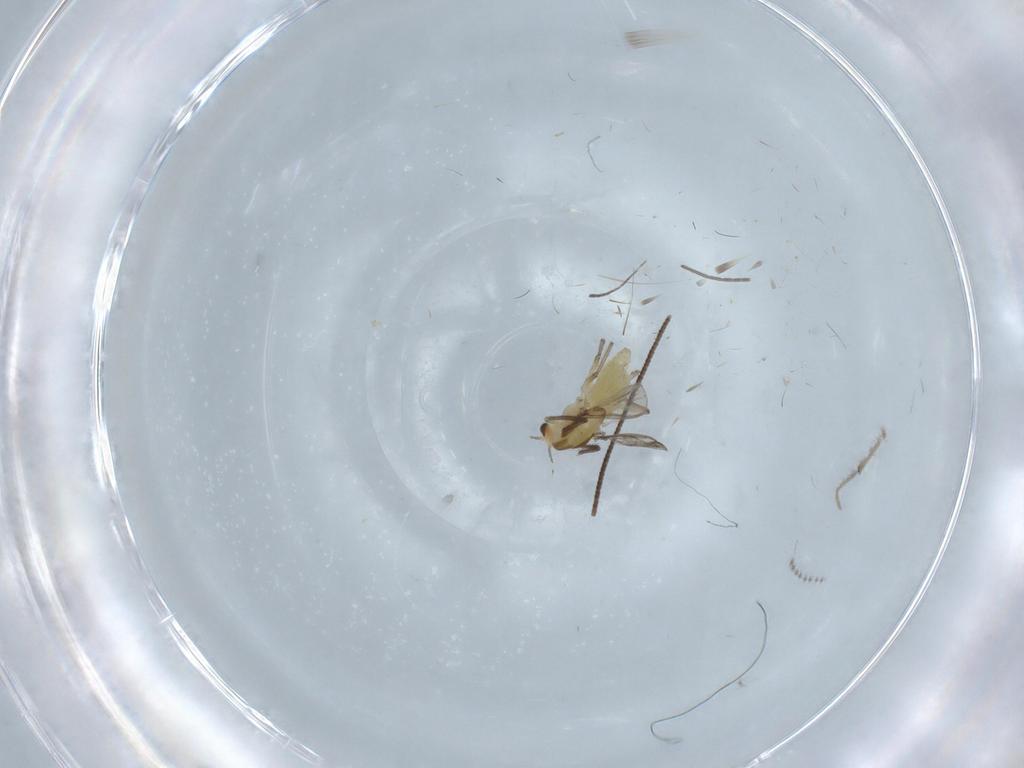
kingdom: Animalia
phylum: Arthropoda
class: Insecta
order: Diptera
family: Chironomidae
